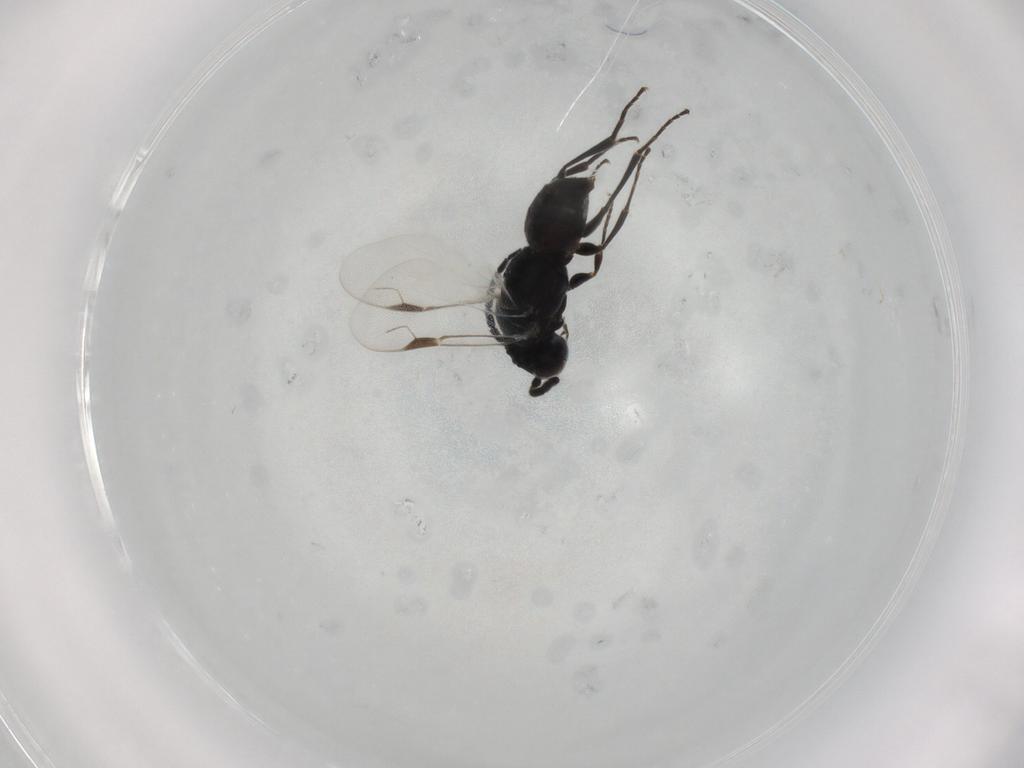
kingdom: Animalia
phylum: Arthropoda
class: Insecta
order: Hymenoptera
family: Dryinidae
